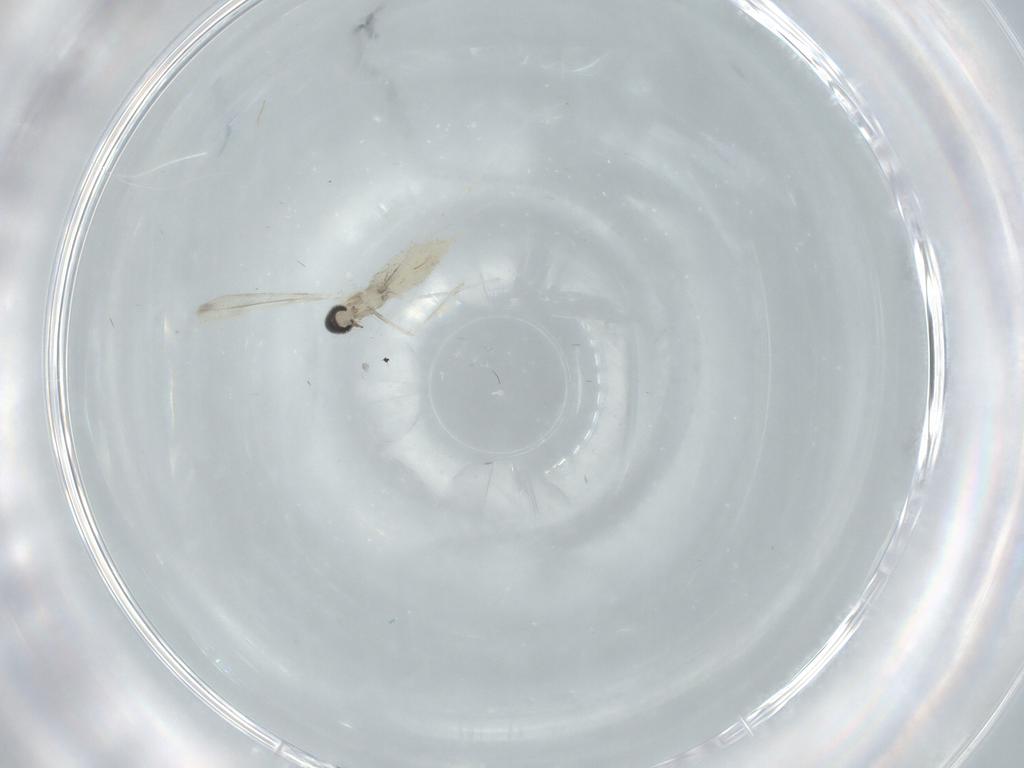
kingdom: Animalia
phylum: Arthropoda
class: Insecta
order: Diptera
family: Cecidomyiidae
